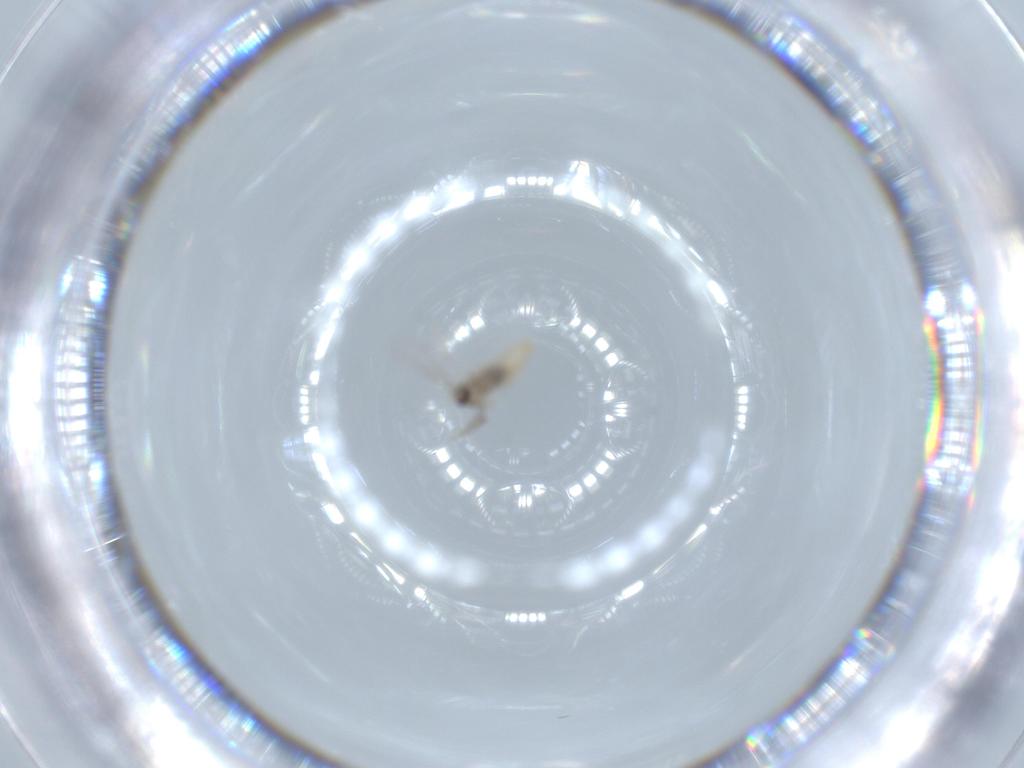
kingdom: Animalia
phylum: Arthropoda
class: Insecta
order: Diptera
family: Cecidomyiidae
